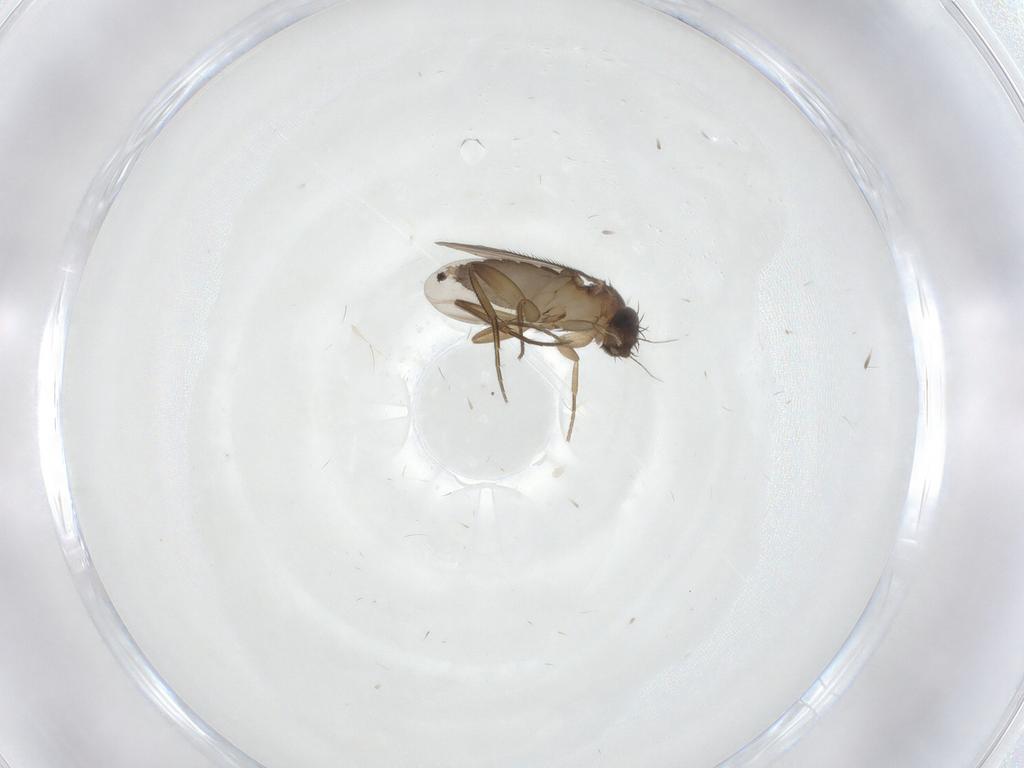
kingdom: Animalia
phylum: Arthropoda
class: Insecta
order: Diptera
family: Phoridae
